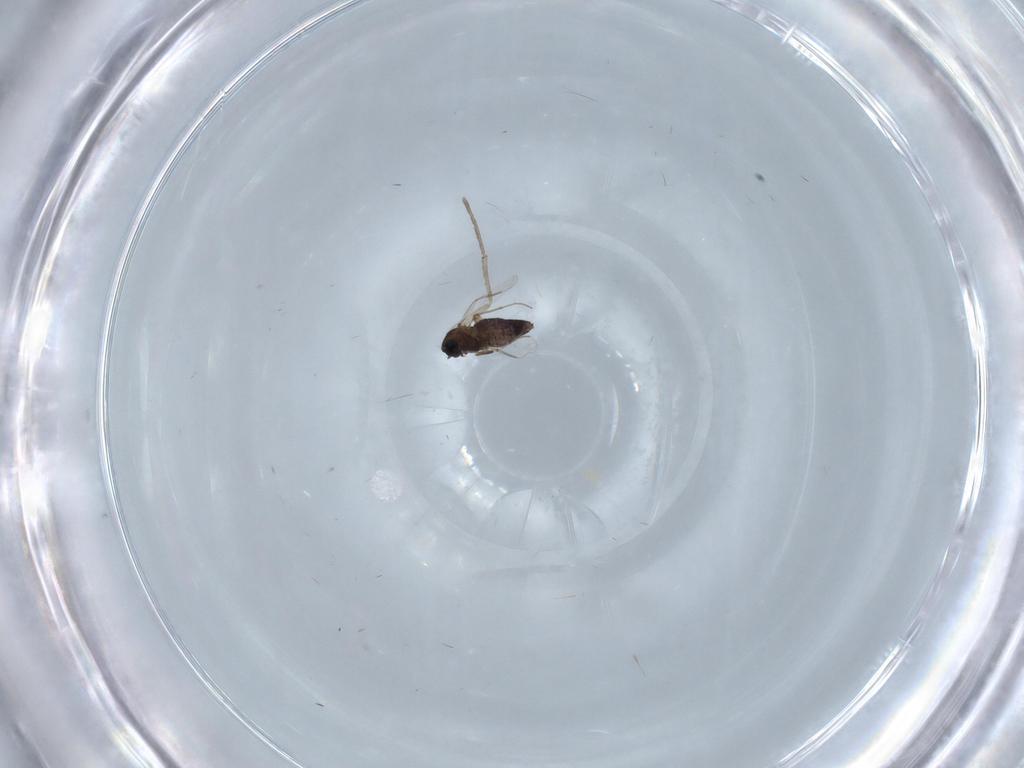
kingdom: Animalia
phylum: Arthropoda
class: Insecta
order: Diptera
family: Chironomidae
